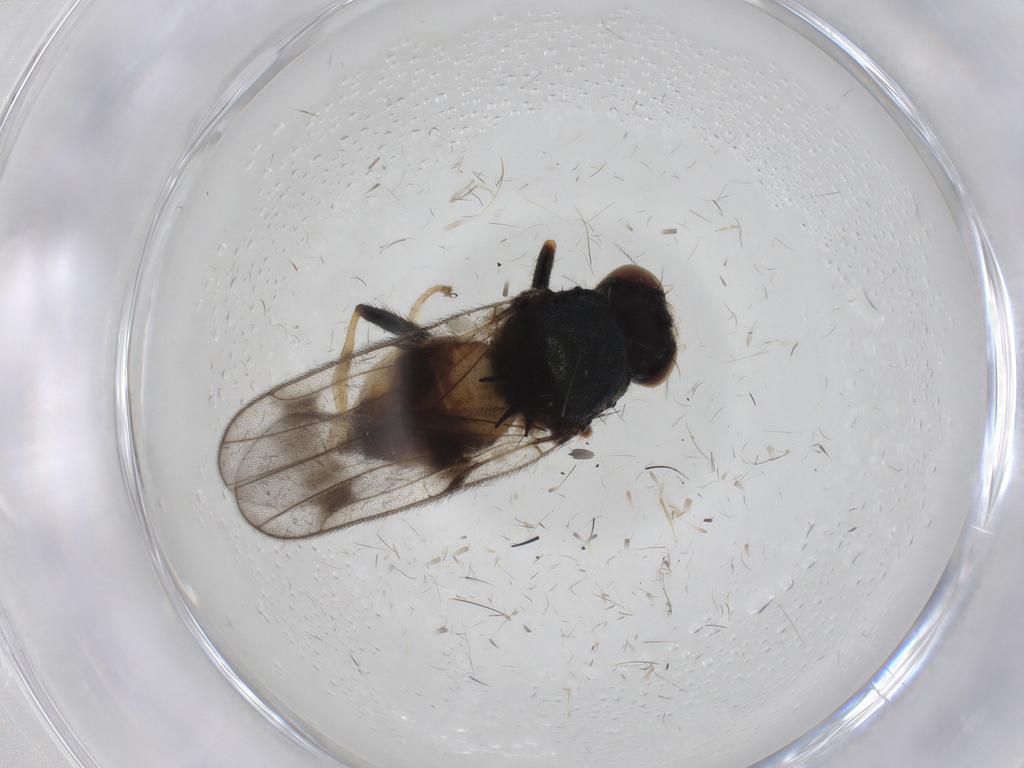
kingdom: Animalia
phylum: Arthropoda
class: Insecta
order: Diptera
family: Chloropidae
